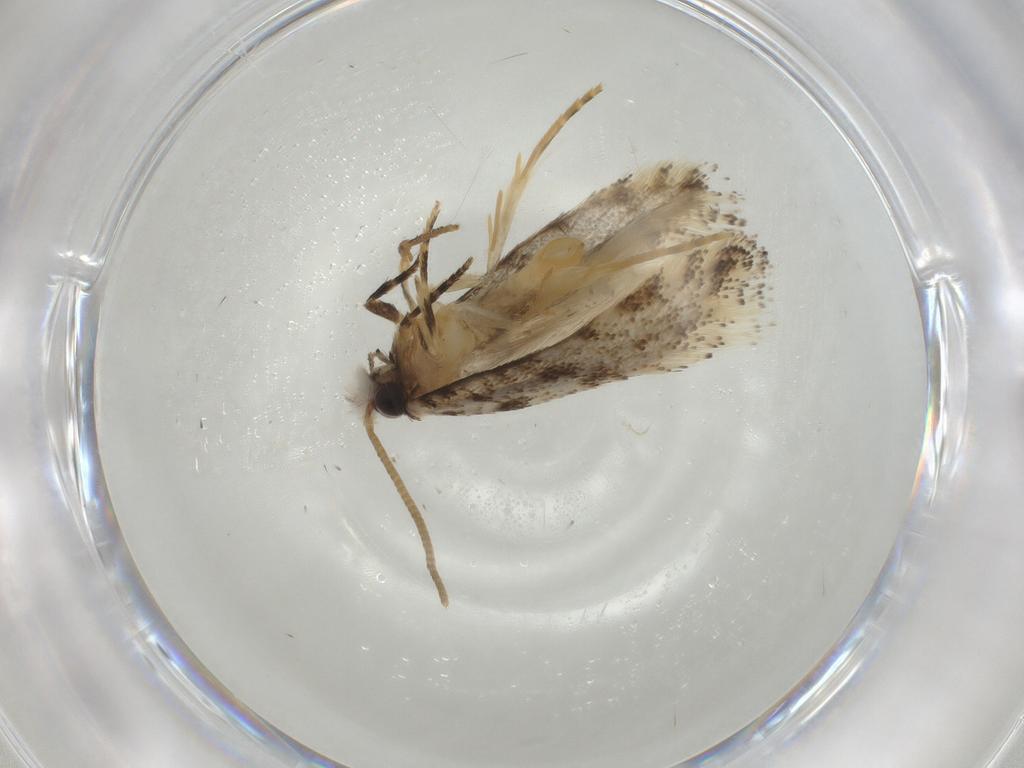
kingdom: Animalia
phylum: Arthropoda
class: Insecta
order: Lepidoptera
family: Tineidae
